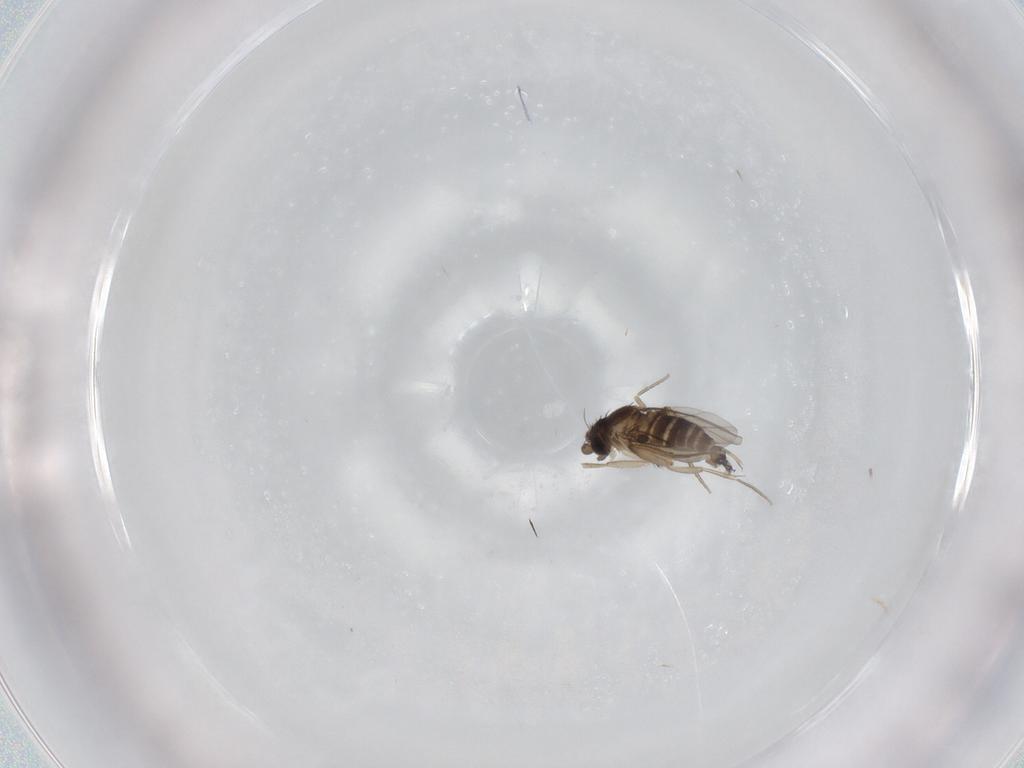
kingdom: Animalia
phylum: Arthropoda
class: Insecta
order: Diptera
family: Phoridae
